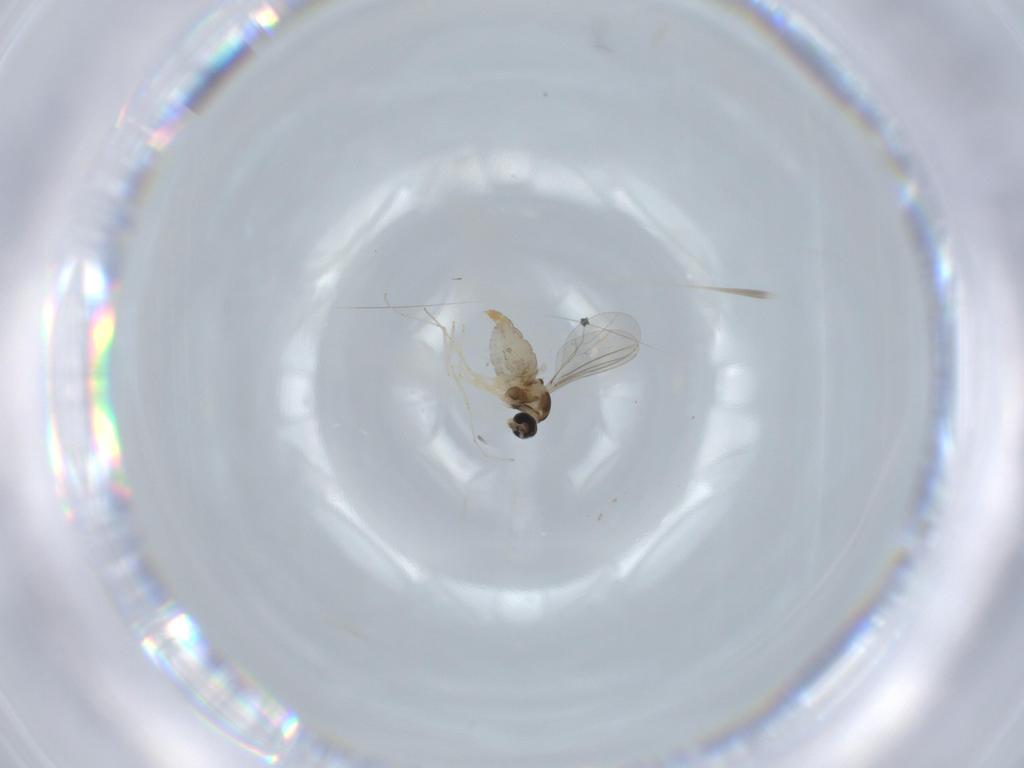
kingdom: Animalia
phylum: Arthropoda
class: Insecta
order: Diptera
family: Cecidomyiidae
